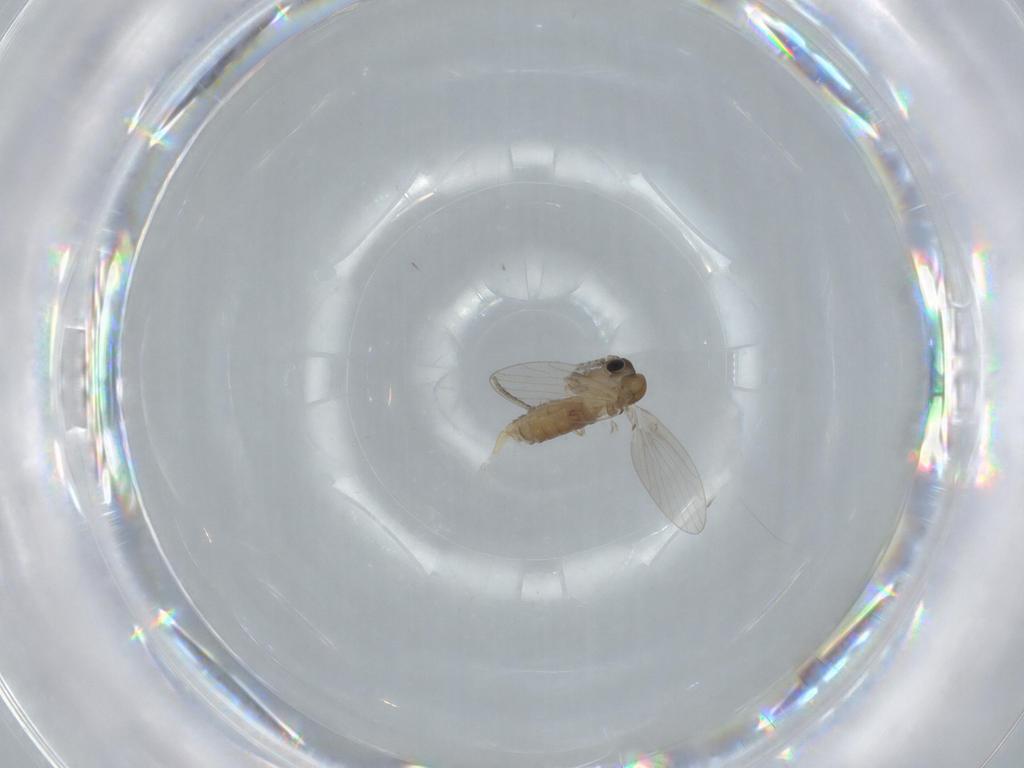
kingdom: Animalia
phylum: Arthropoda
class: Insecta
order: Diptera
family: Psychodidae
